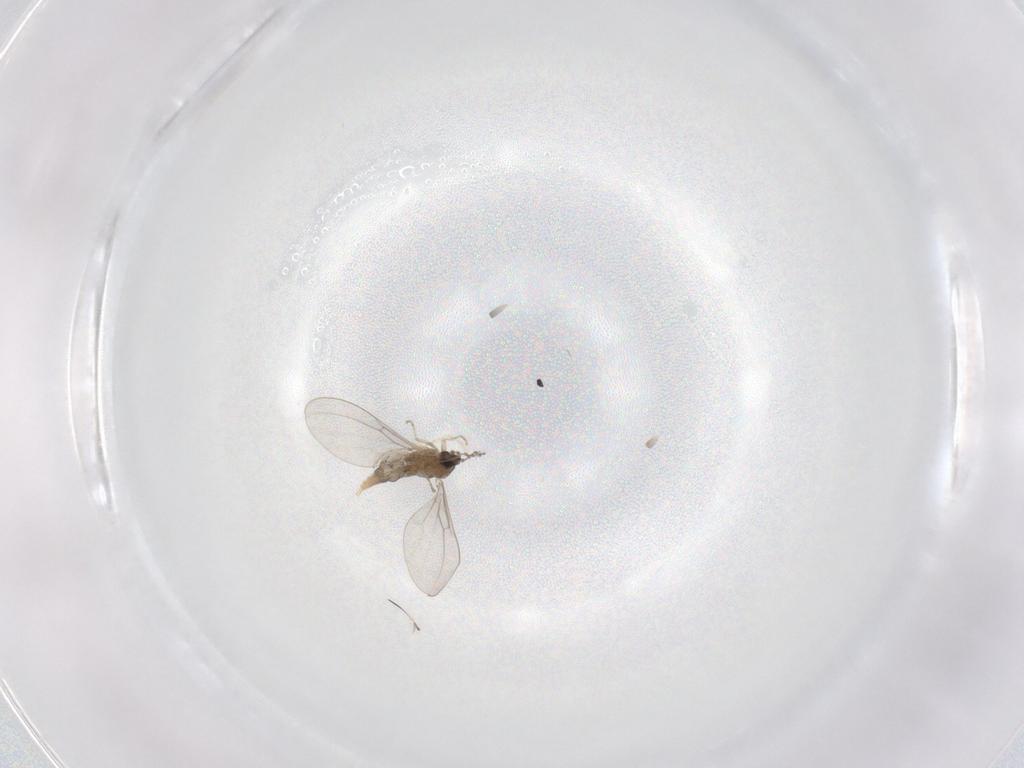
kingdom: Animalia
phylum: Arthropoda
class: Insecta
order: Diptera
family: Cecidomyiidae
